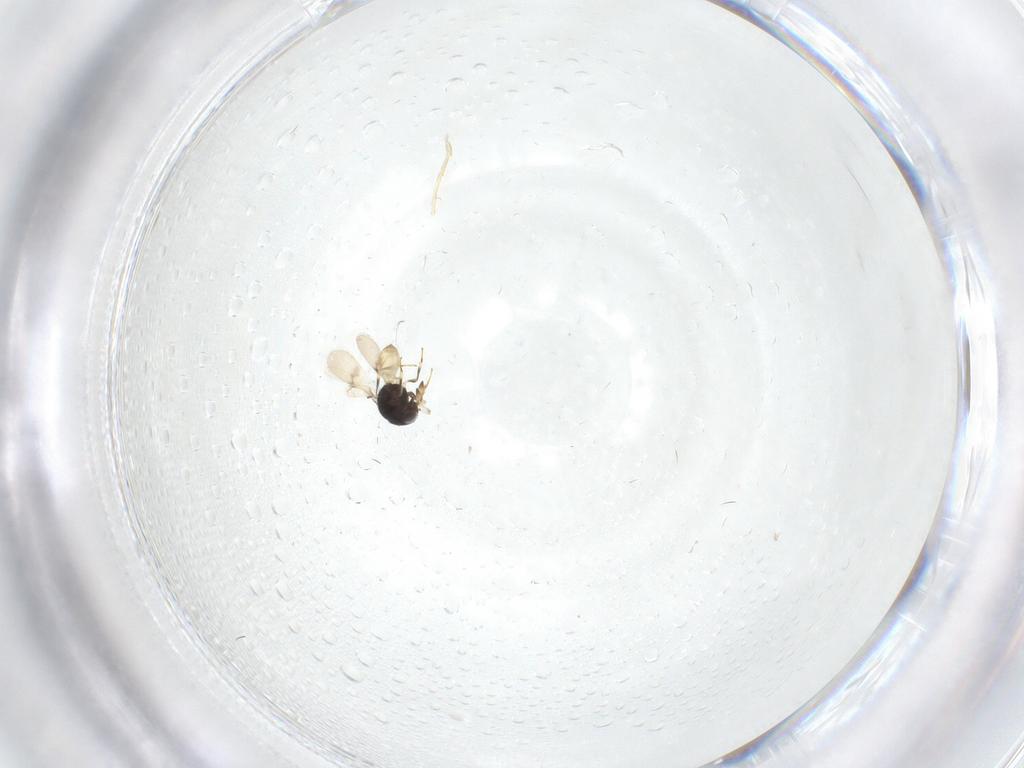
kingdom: Animalia
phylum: Arthropoda
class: Insecta
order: Hymenoptera
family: Scelionidae
